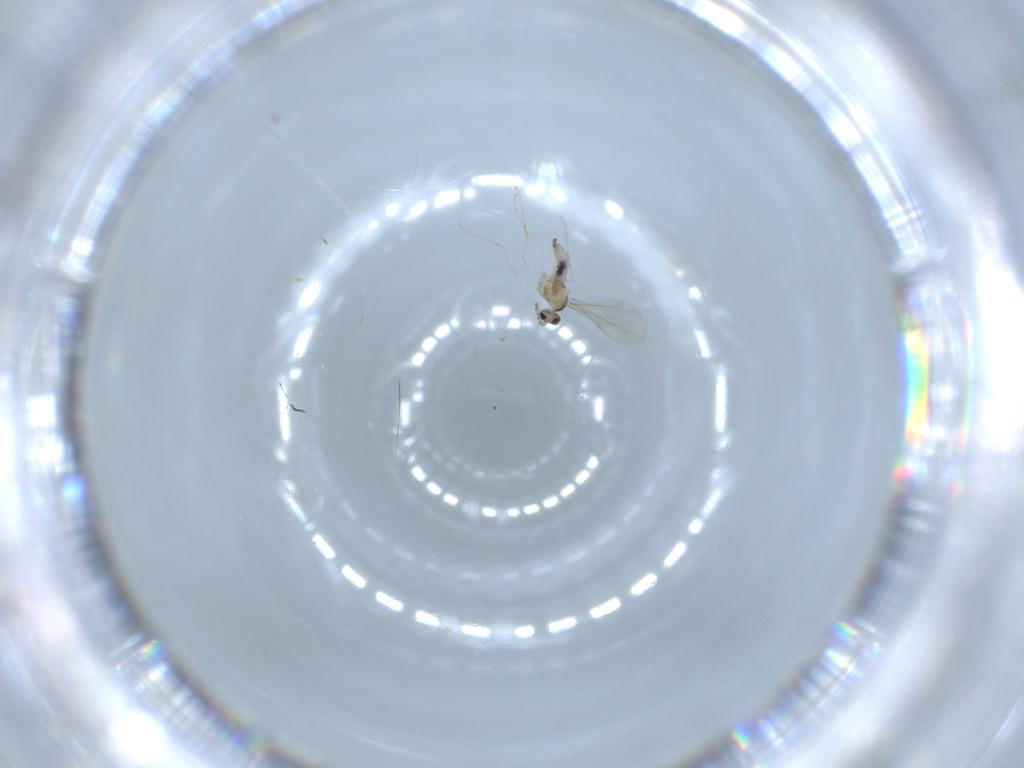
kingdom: Animalia
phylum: Arthropoda
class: Insecta
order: Diptera
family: Cecidomyiidae
